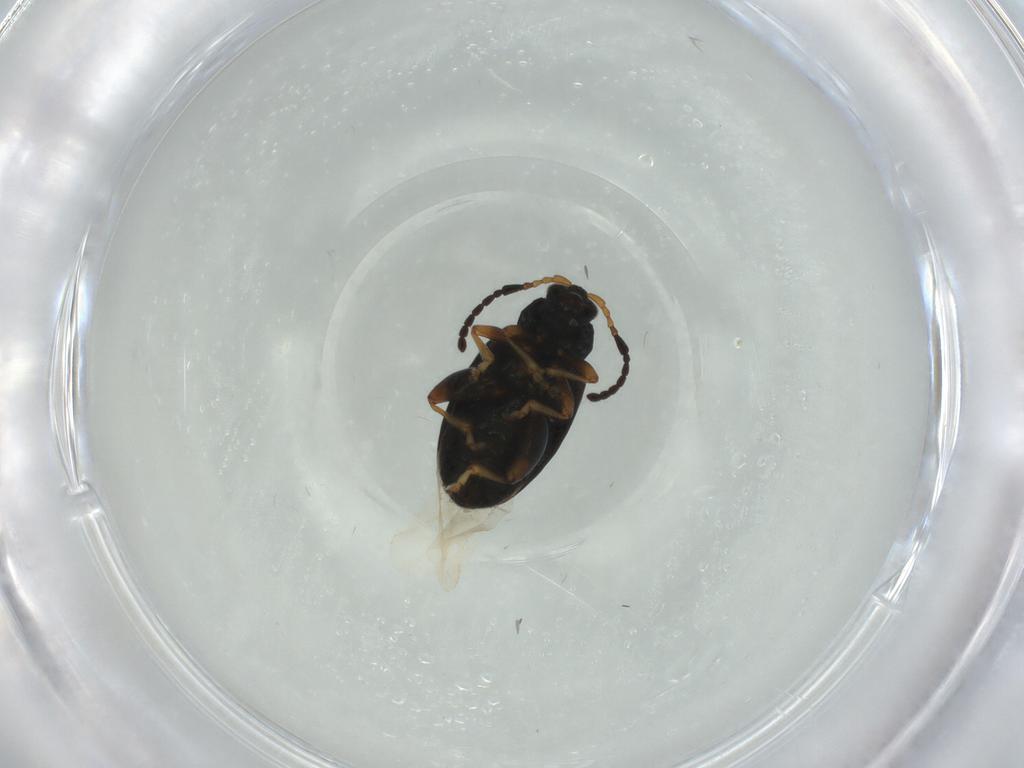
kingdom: Animalia
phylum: Arthropoda
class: Insecta
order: Coleoptera
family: Chrysomelidae
